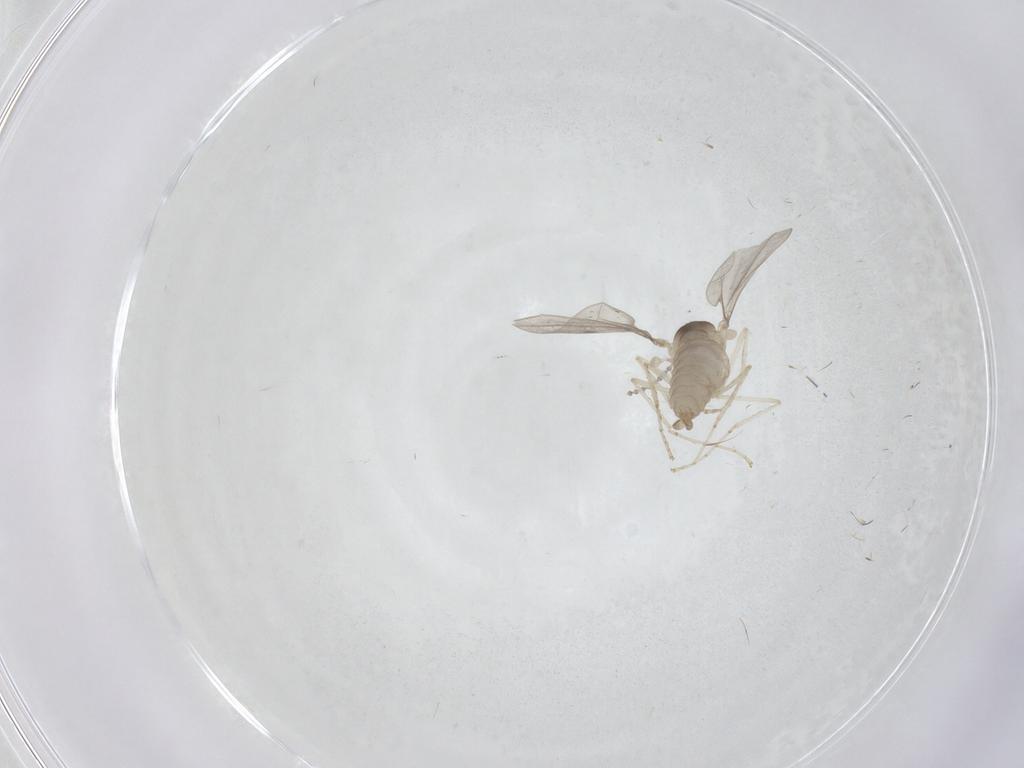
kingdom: Animalia
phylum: Arthropoda
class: Insecta
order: Diptera
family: Cecidomyiidae
